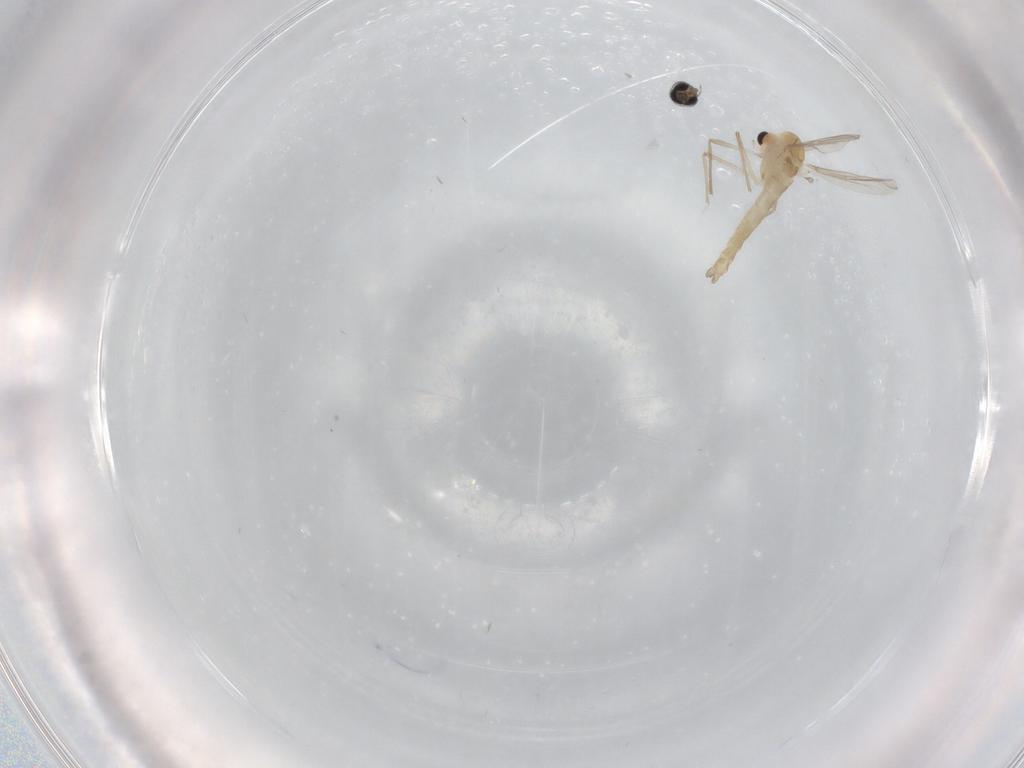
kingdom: Animalia
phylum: Arthropoda
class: Insecta
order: Diptera
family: Chironomidae
